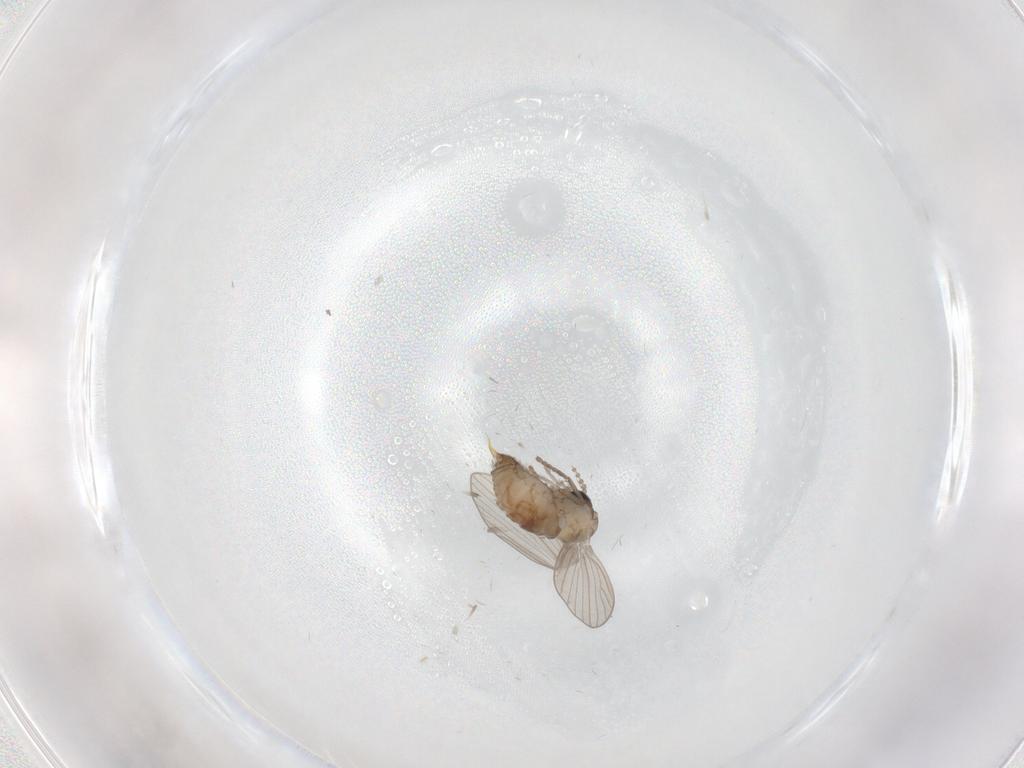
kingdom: Animalia
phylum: Arthropoda
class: Insecta
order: Diptera
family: Psychodidae
